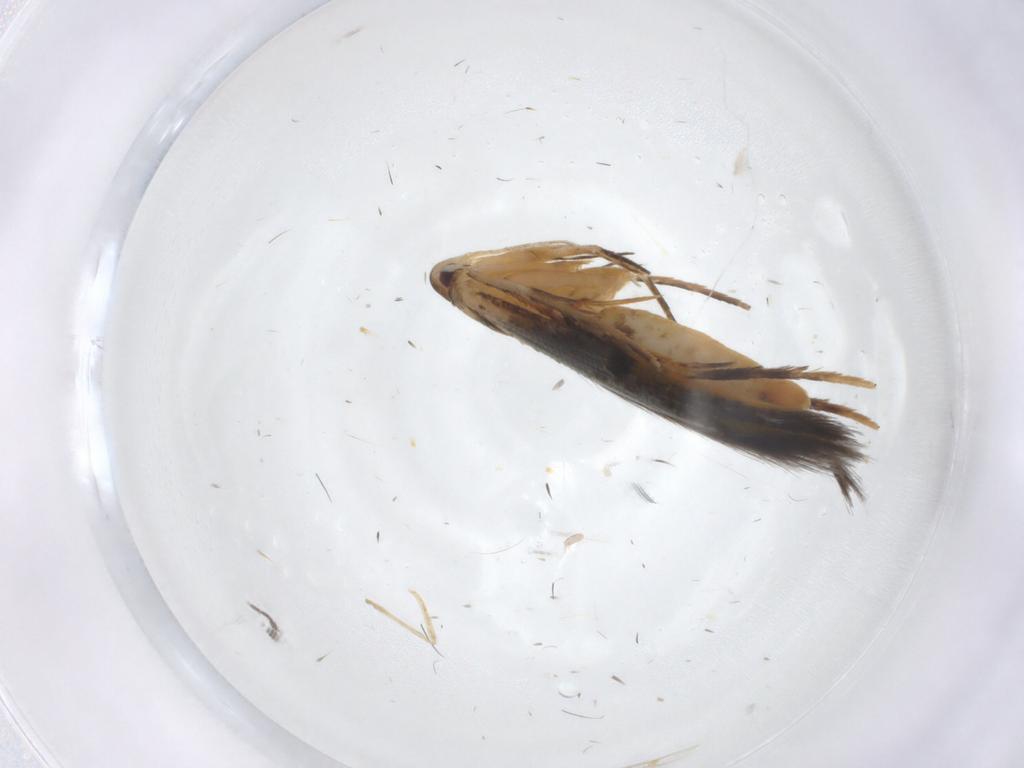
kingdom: Animalia
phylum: Arthropoda
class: Insecta
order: Lepidoptera
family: Gelechiidae
